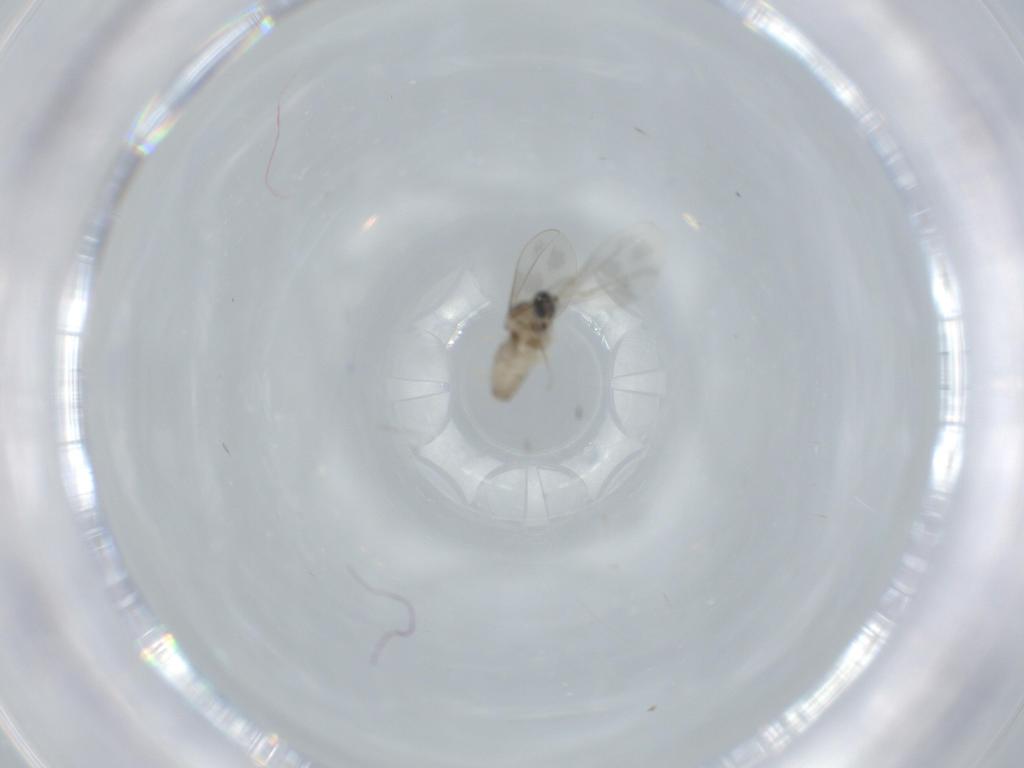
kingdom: Animalia
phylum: Arthropoda
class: Insecta
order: Diptera
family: Cecidomyiidae
